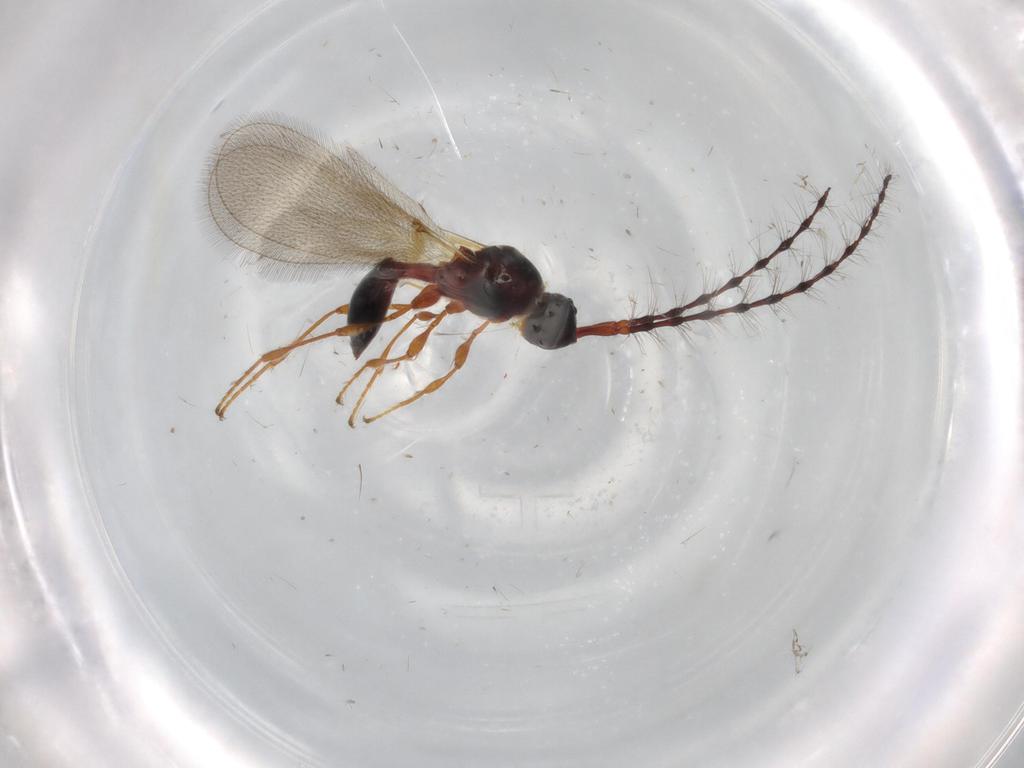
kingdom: Animalia
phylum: Arthropoda
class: Insecta
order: Hymenoptera
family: Diapriidae
